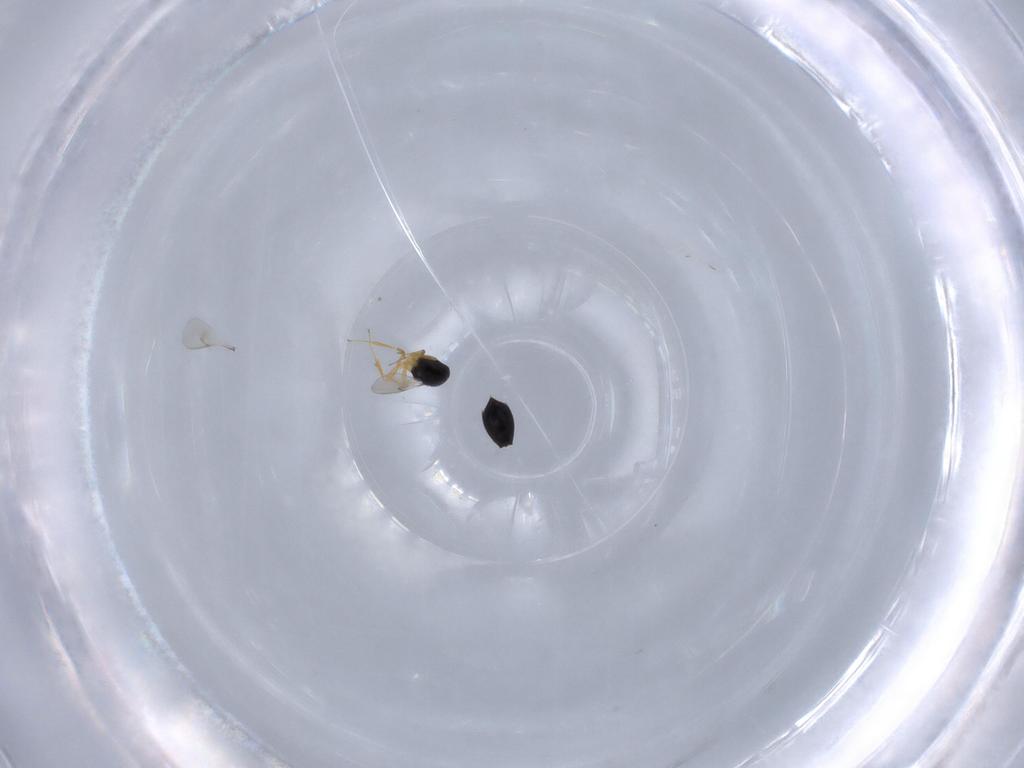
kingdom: Animalia
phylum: Arthropoda
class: Insecta
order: Hymenoptera
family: Scelionidae
